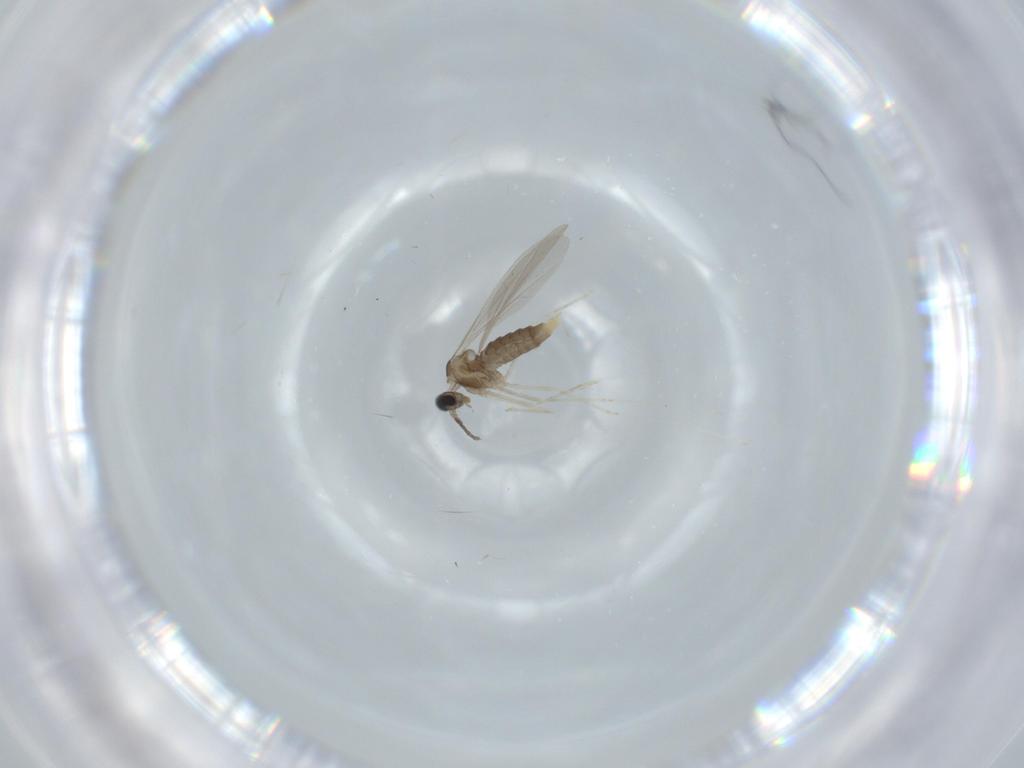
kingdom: Animalia
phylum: Arthropoda
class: Insecta
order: Diptera
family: Cecidomyiidae
